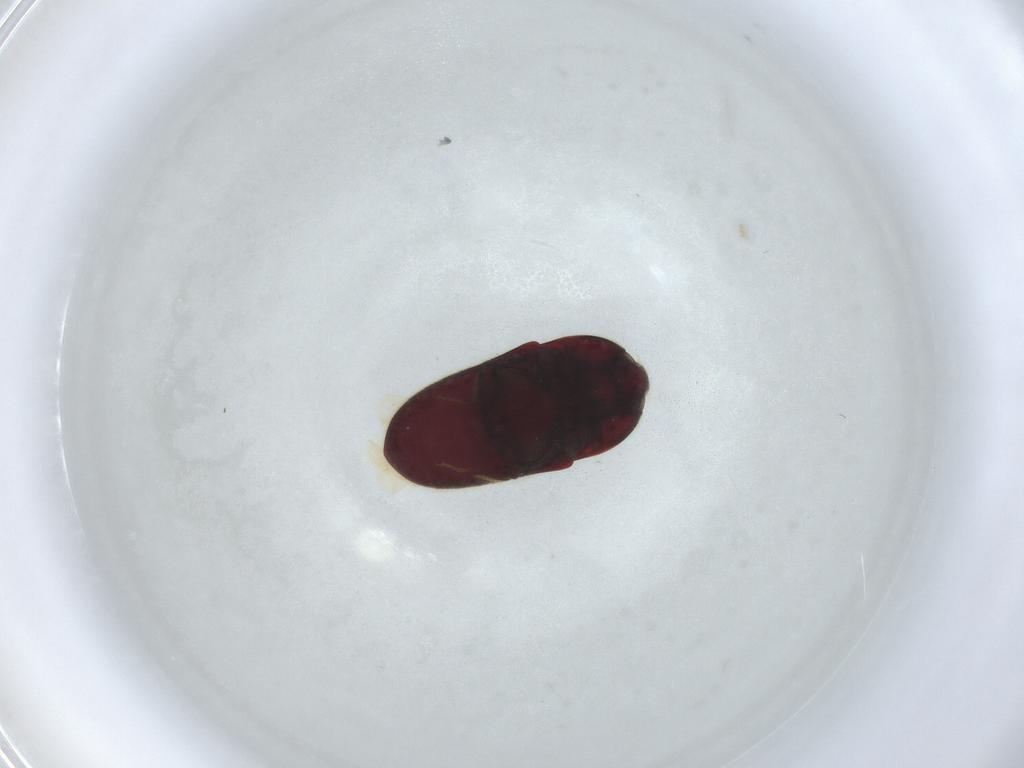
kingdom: Animalia
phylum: Arthropoda
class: Insecta
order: Coleoptera
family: Throscidae
